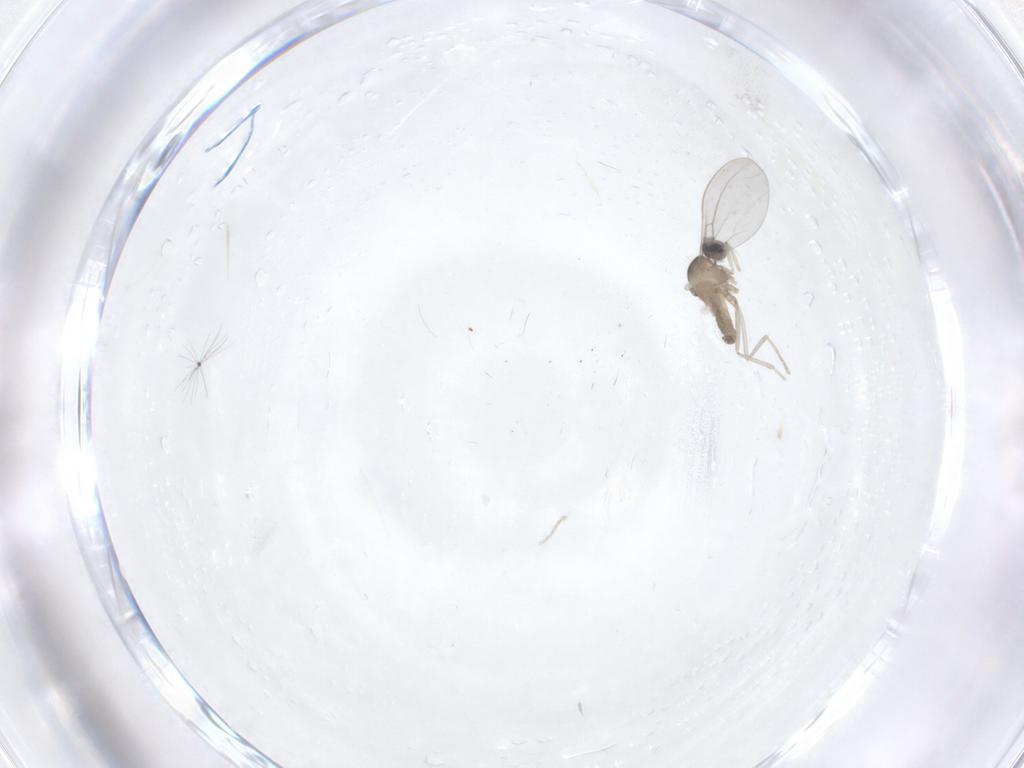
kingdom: Animalia
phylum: Arthropoda
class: Insecta
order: Diptera
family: Cecidomyiidae
